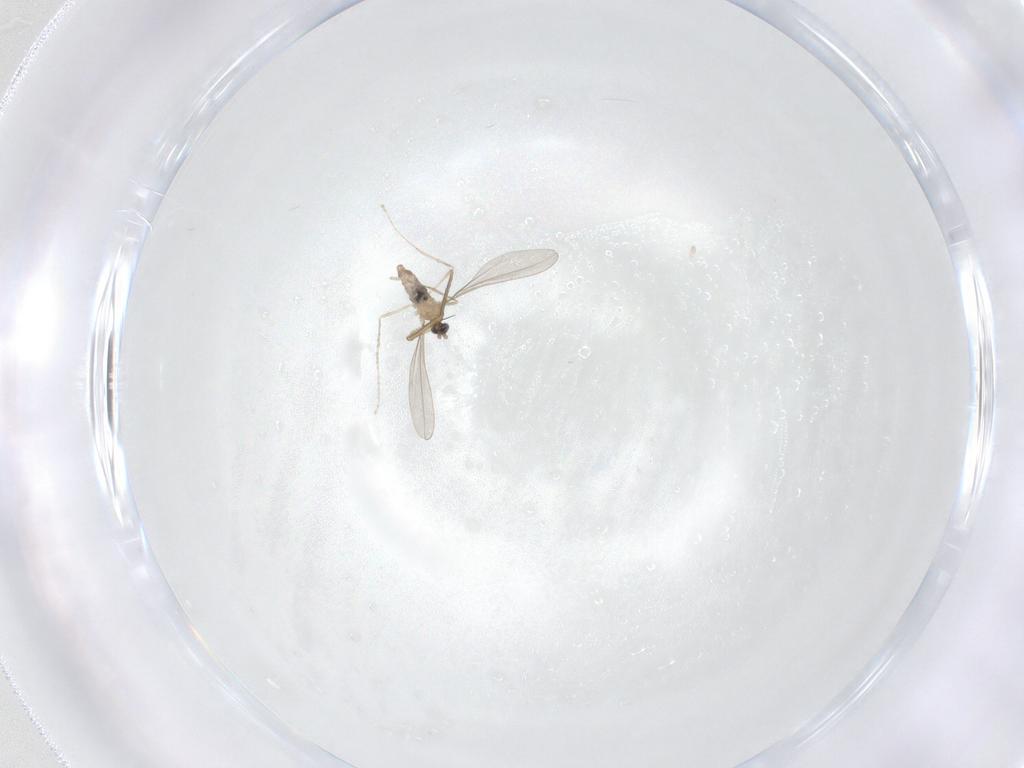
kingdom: Animalia
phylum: Arthropoda
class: Insecta
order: Diptera
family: Cecidomyiidae
